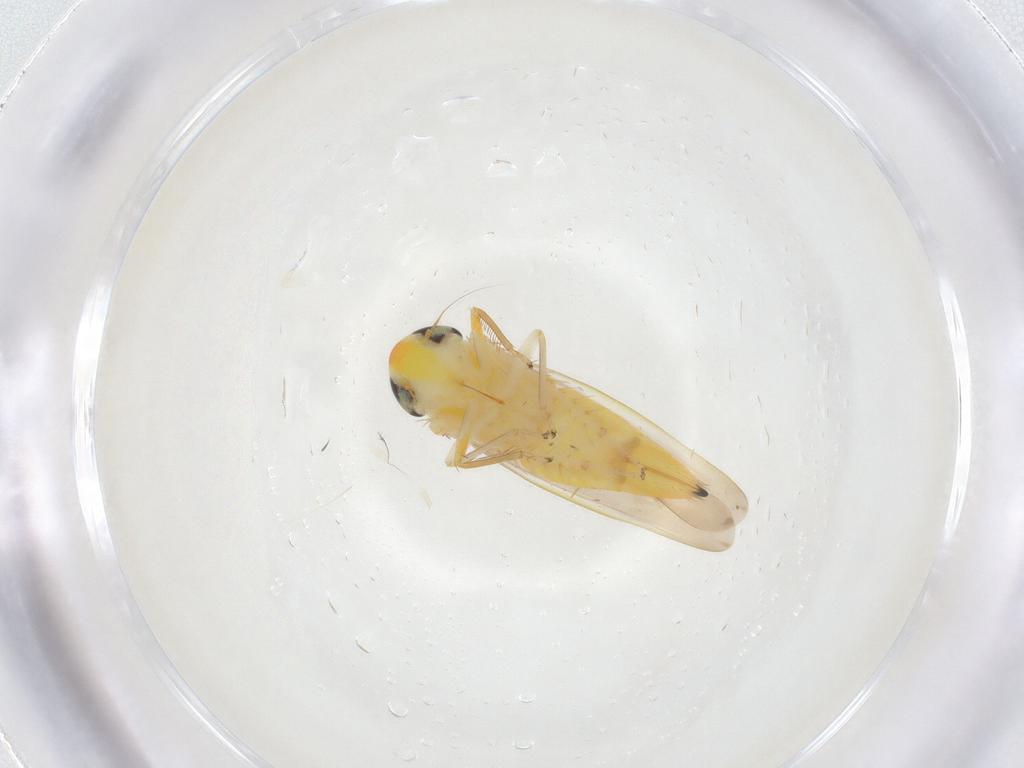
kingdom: Animalia
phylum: Arthropoda
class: Insecta
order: Hemiptera
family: Cicadellidae
